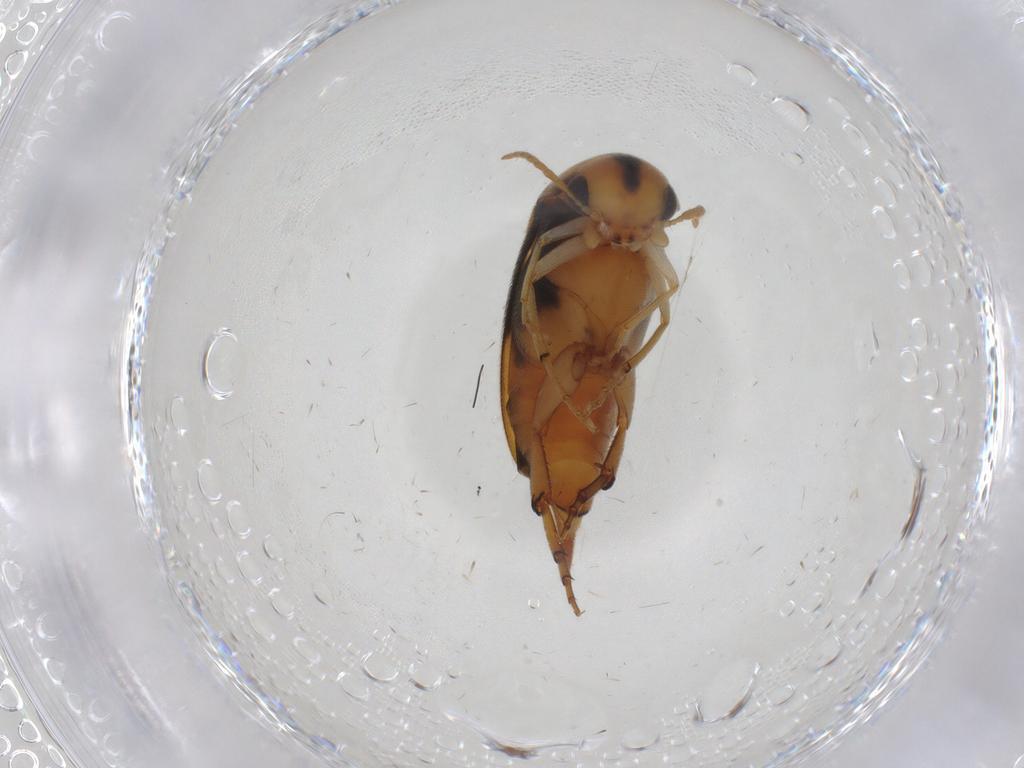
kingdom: Animalia
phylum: Arthropoda
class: Insecta
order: Coleoptera
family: Mordellidae
